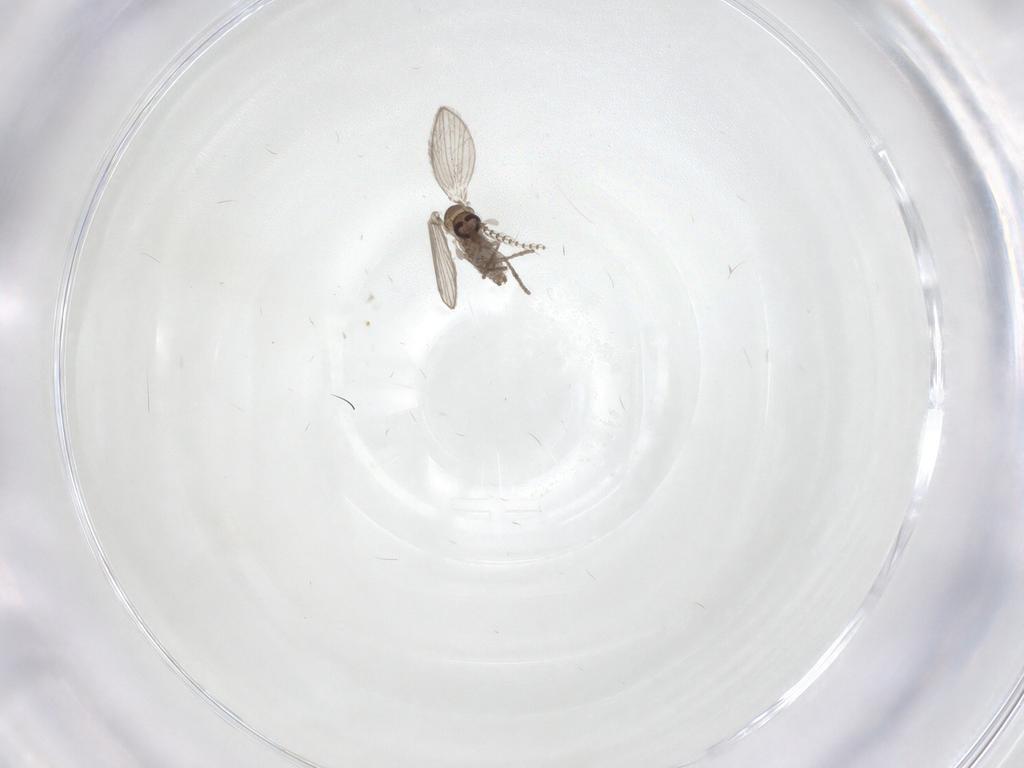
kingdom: Animalia
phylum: Arthropoda
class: Insecta
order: Diptera
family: Psychodidae
